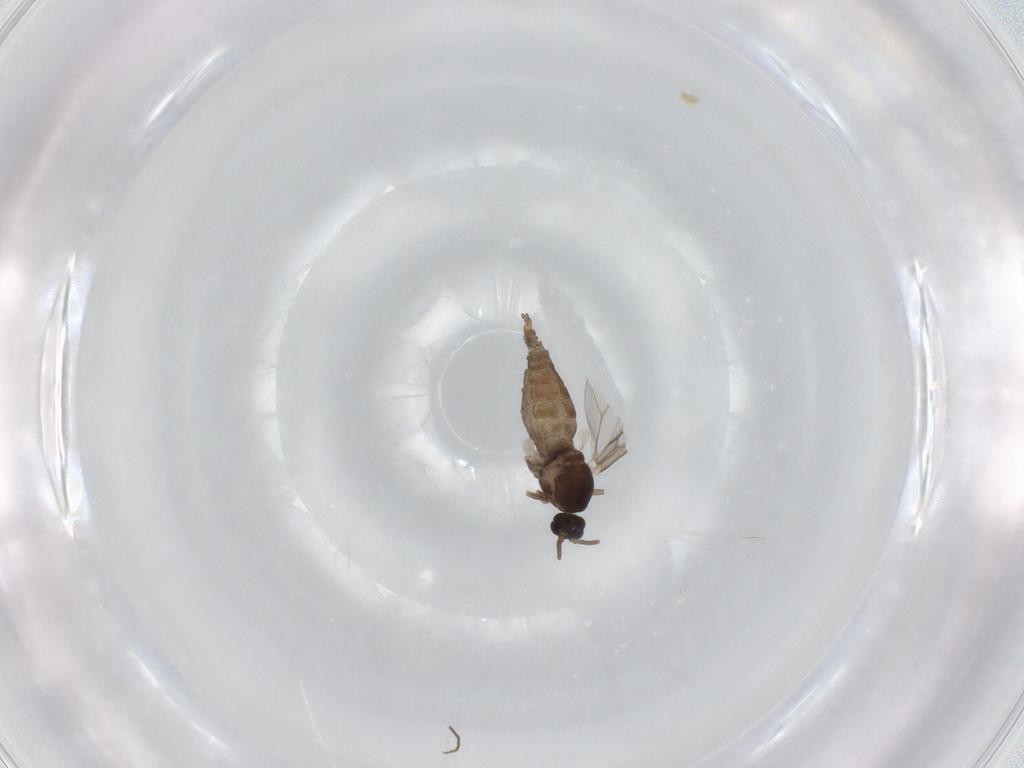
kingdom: Animalia
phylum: Arthropoda
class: Insecta
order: Diptera
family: Cecidomyiidae
